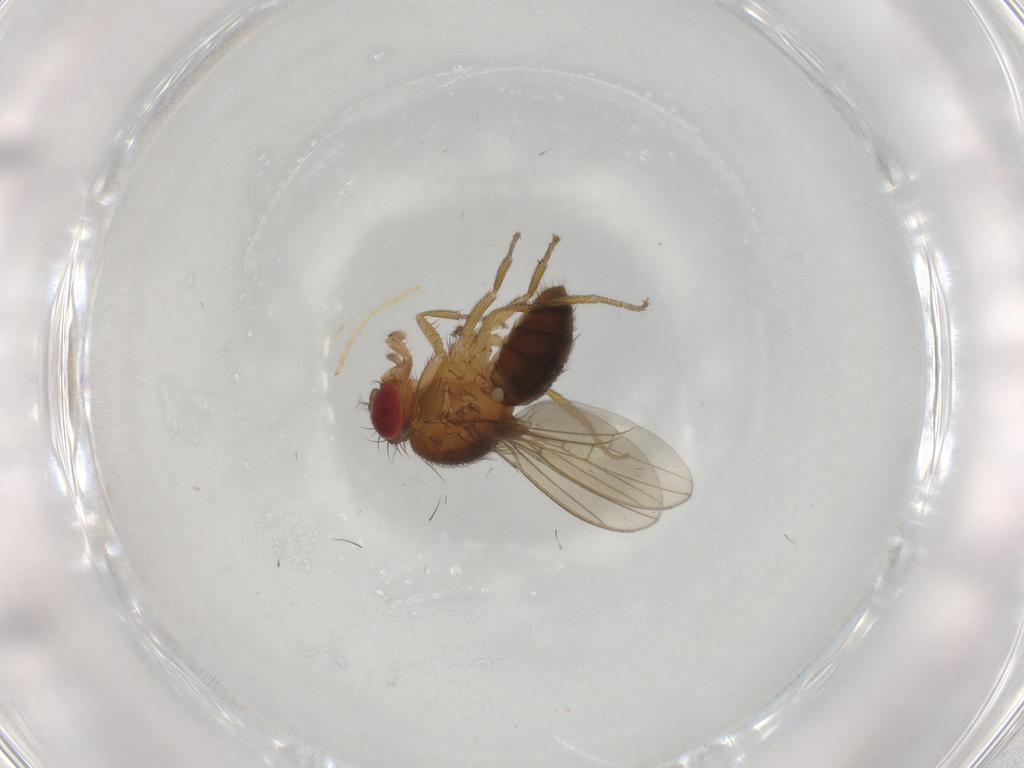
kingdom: Animalia
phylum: Arthropoda
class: Insecta
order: Diptera
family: Drosophilidae
